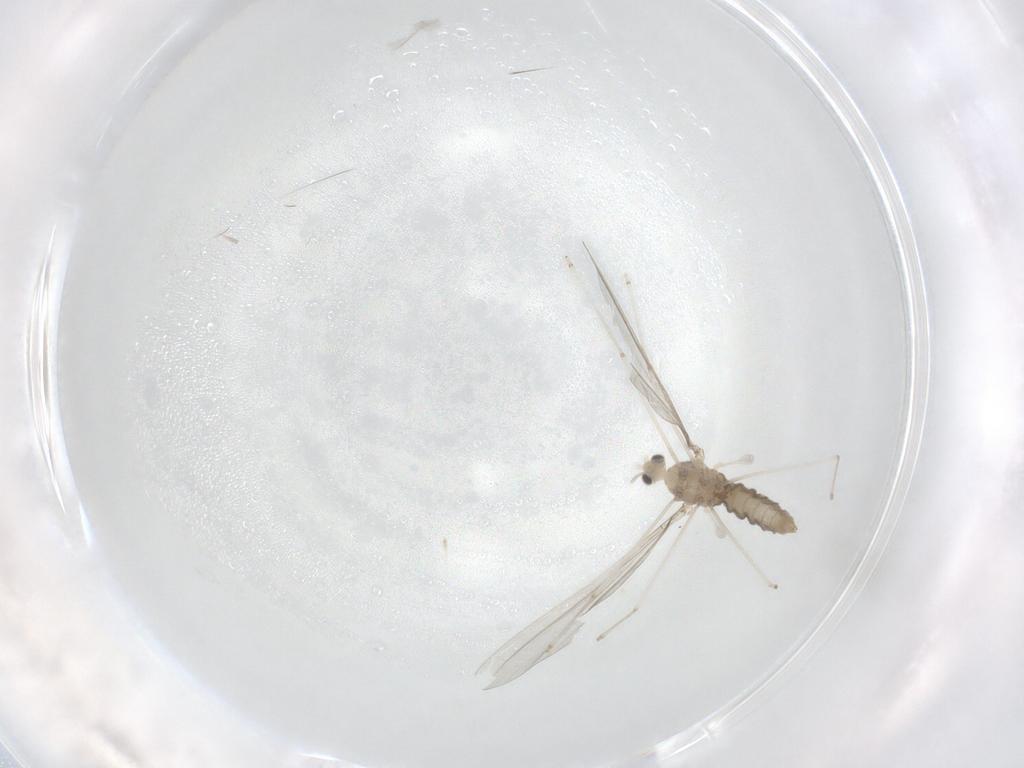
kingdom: Animalia
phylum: Arthropoda
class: Insecta
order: Diptera
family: Cecidomyiidae
